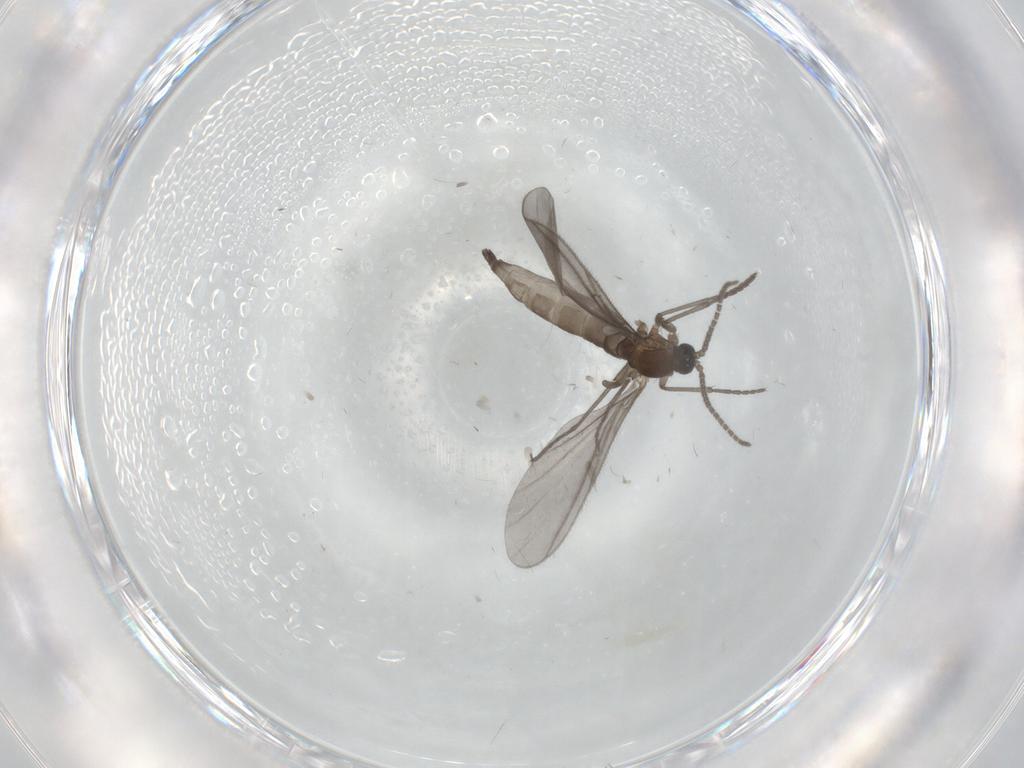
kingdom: Animalia
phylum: Arthropoda
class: Insecta
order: Diptera
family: Sciaridae
